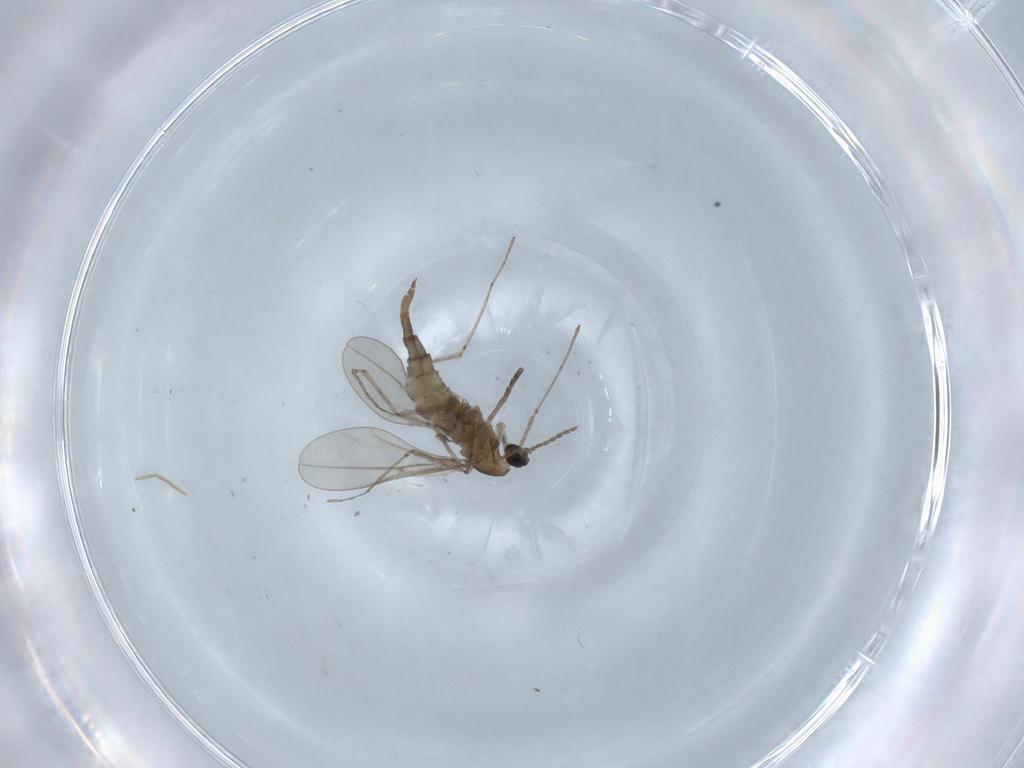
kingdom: Animalia
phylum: Arthropoda
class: Insecta
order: Diptera
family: Cecidomyiidae
